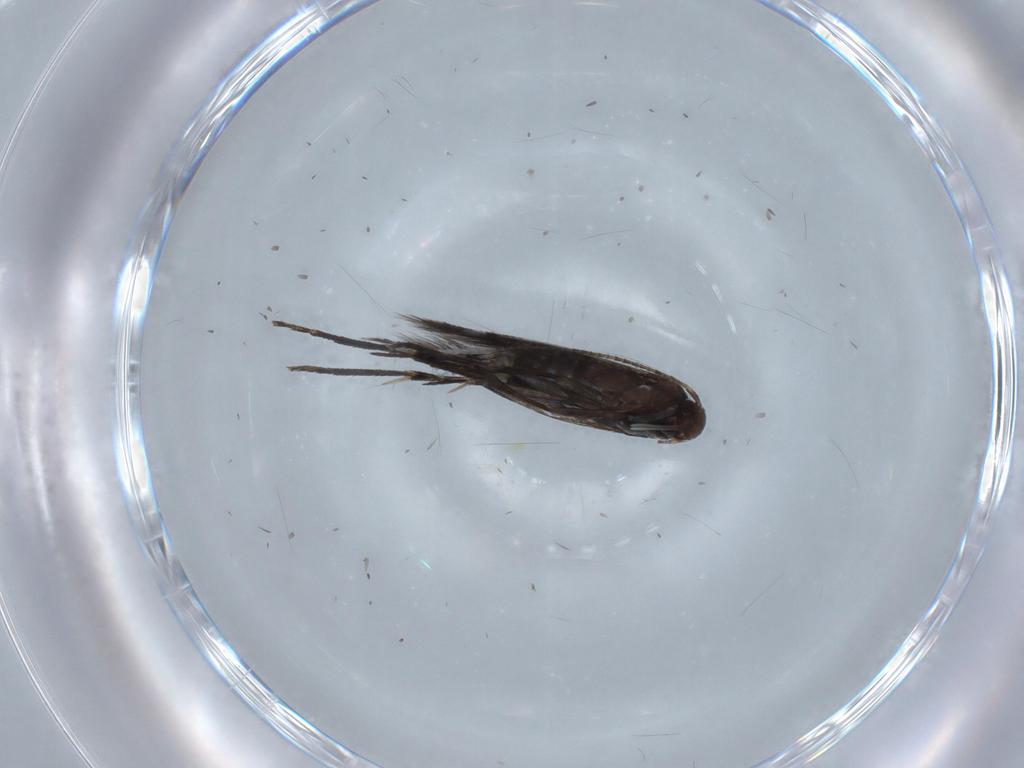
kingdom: Animalia
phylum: Arthropoda
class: Insecta
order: Lepidoptera
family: Gracillariidae
